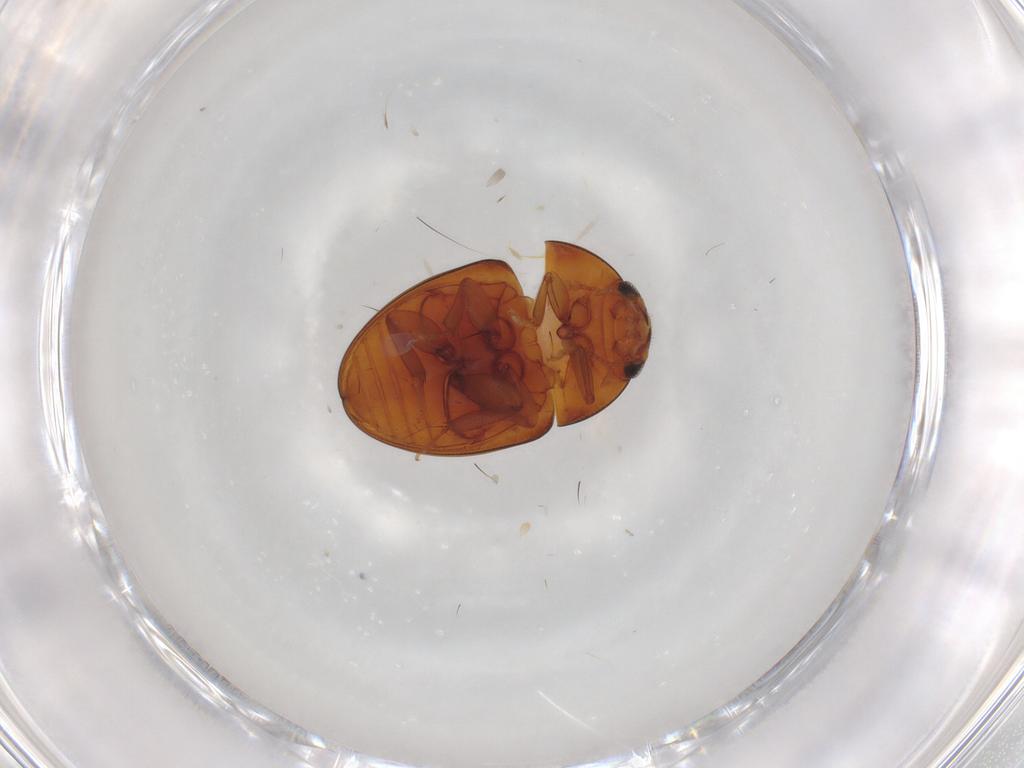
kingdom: Animalia
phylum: Arthropoda
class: Insecta
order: Coleoptera
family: Phalacridae
